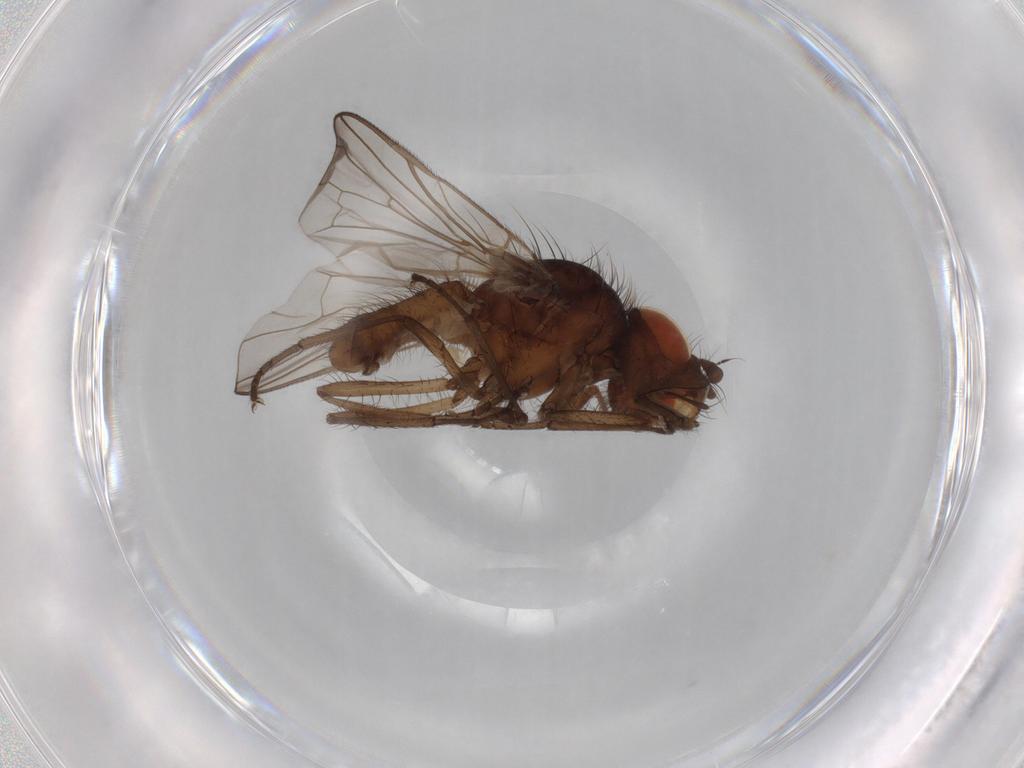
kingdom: Animalia
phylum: Arthropoda
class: Insecta
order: Diptera
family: Anthomyiidae
